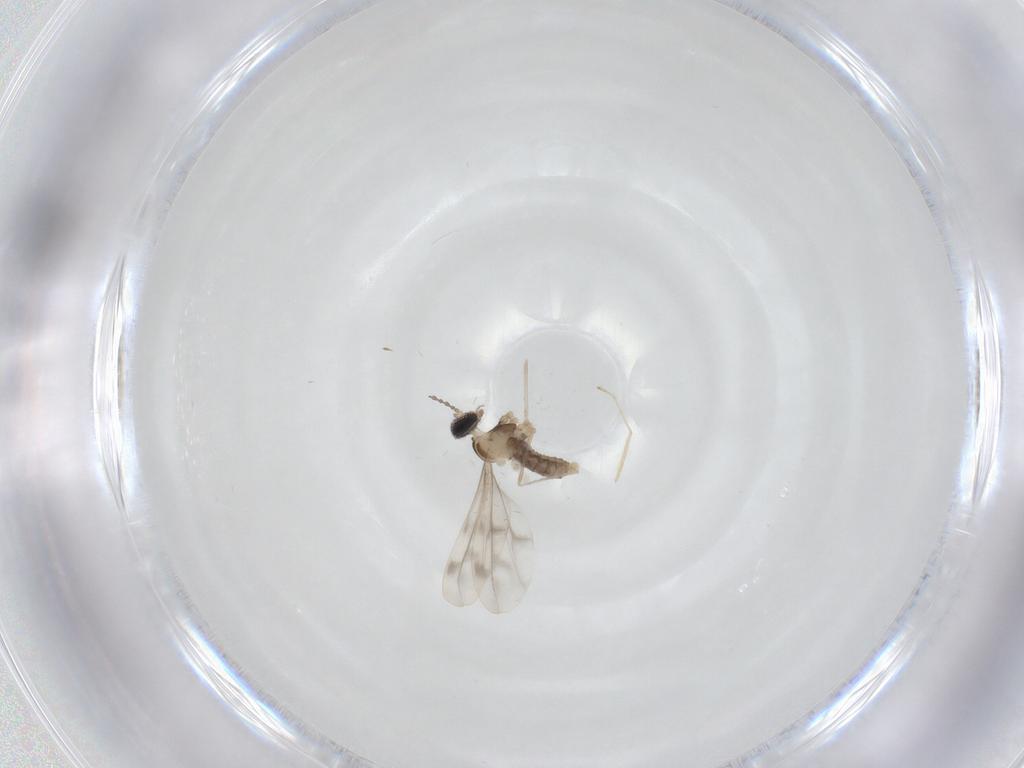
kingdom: Animalia
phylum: Arthropoda
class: Insecta
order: Diptera
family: Cecidomyiidae
